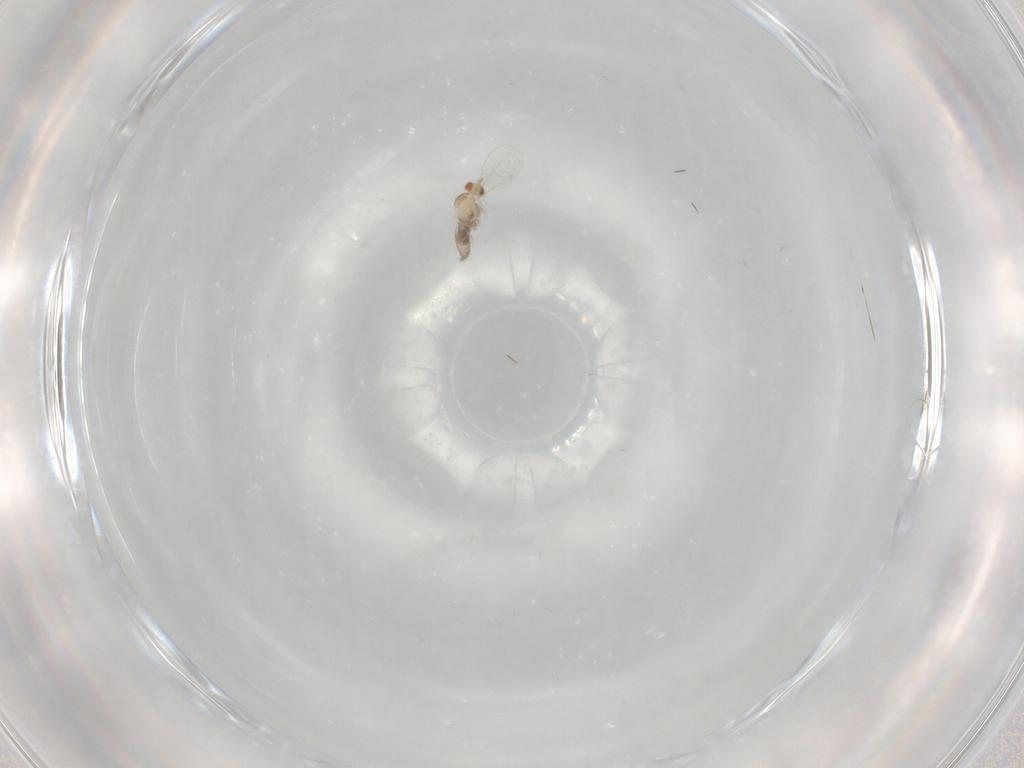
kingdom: Animalia
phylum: Arthropoda
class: Insecta
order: Diptera
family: Cecidomyiidae
